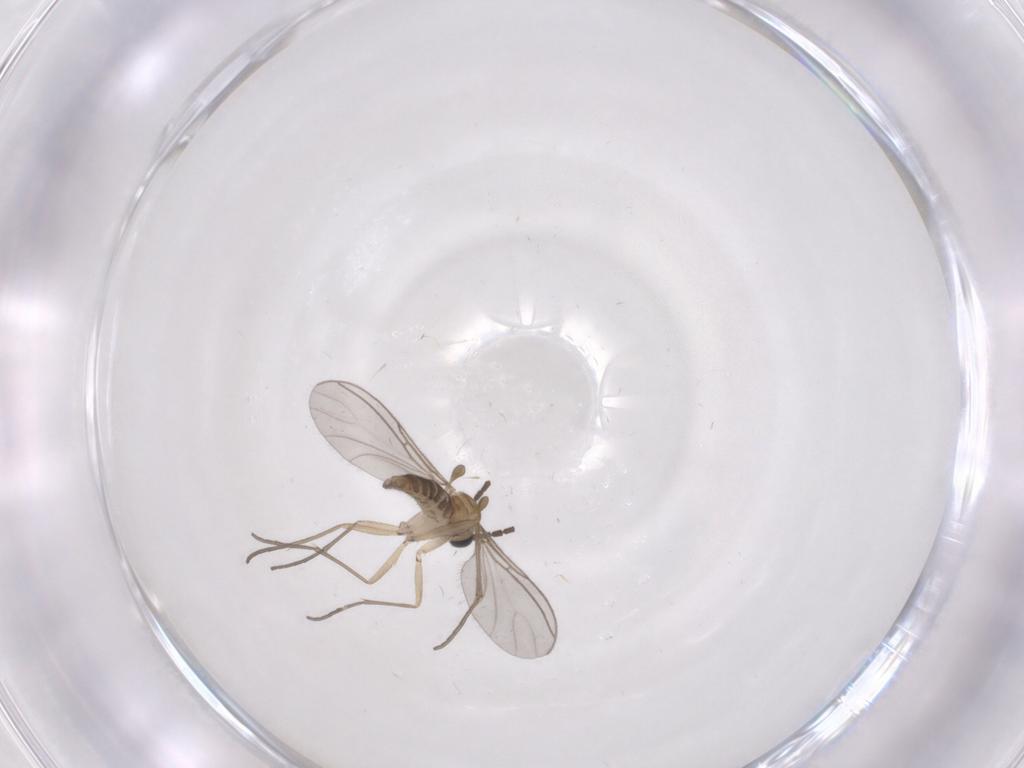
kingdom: Animalia
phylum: Arthropoda
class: Insecta
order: Diptera
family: Sciaridae
